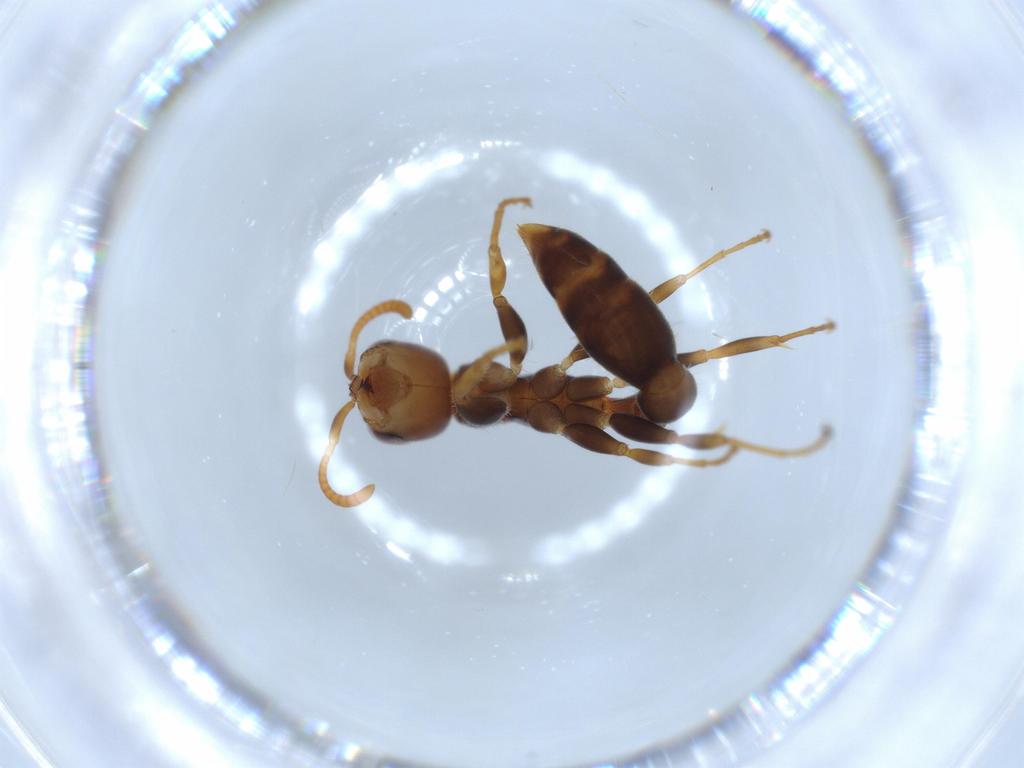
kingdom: Animalia
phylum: Arthropoda
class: Insecta
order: Hymenoptera
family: Formicidae
